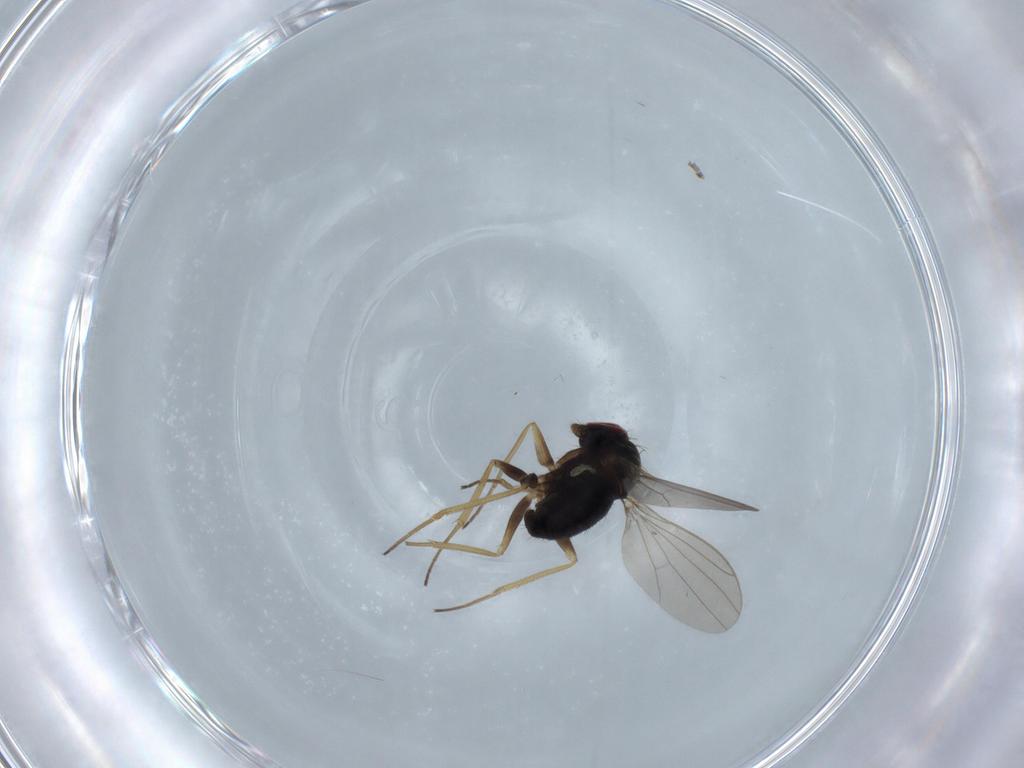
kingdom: Animalia
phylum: Arthropoda
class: Insecta
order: Diptera
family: Dolichopodidae
